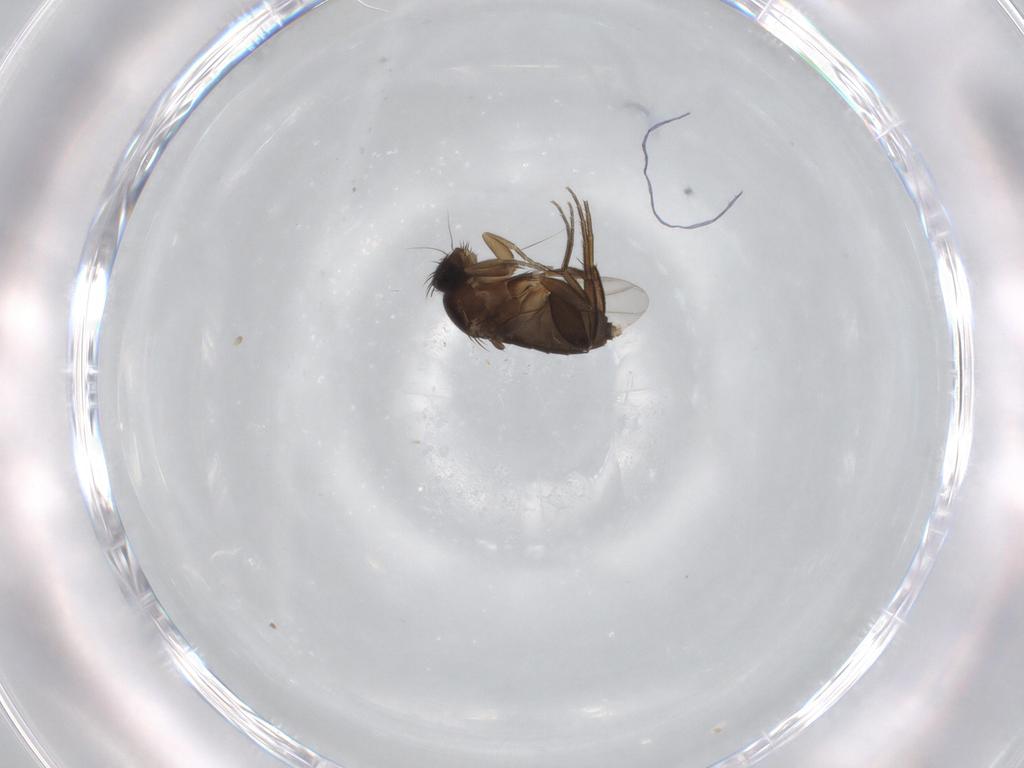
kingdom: Animalia
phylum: Arthropoda
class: Insecta
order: Diptera
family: Phoridae
